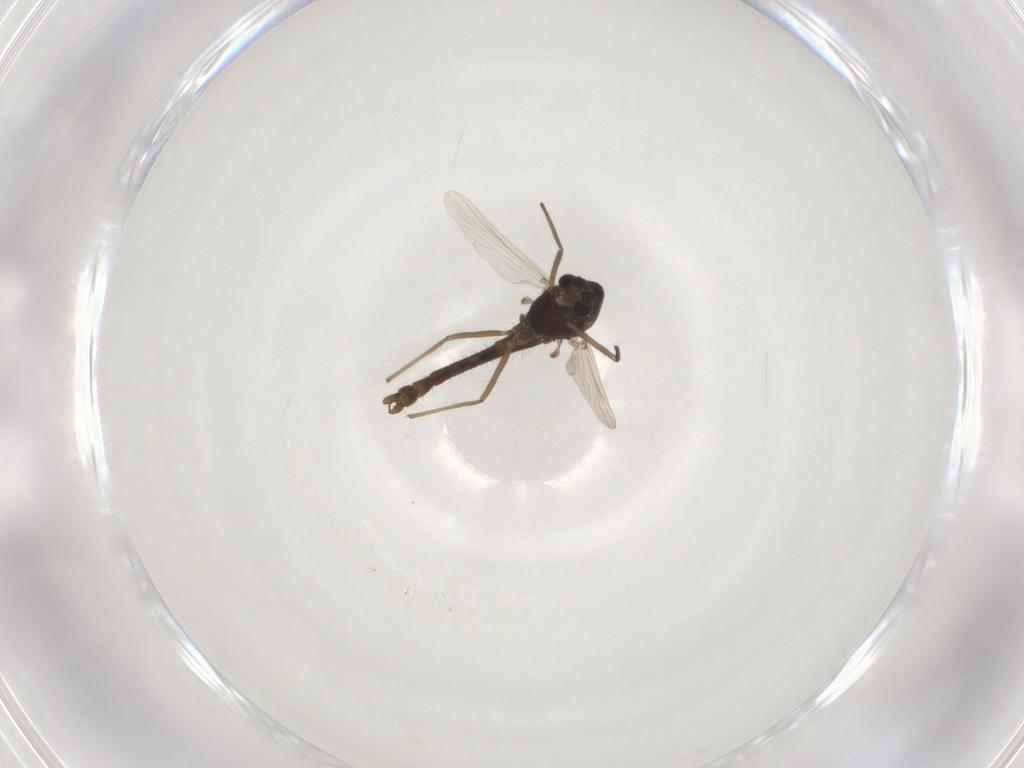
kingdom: Animalia
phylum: Arthropoda
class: Insecta
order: Diptera
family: Chironomidae
